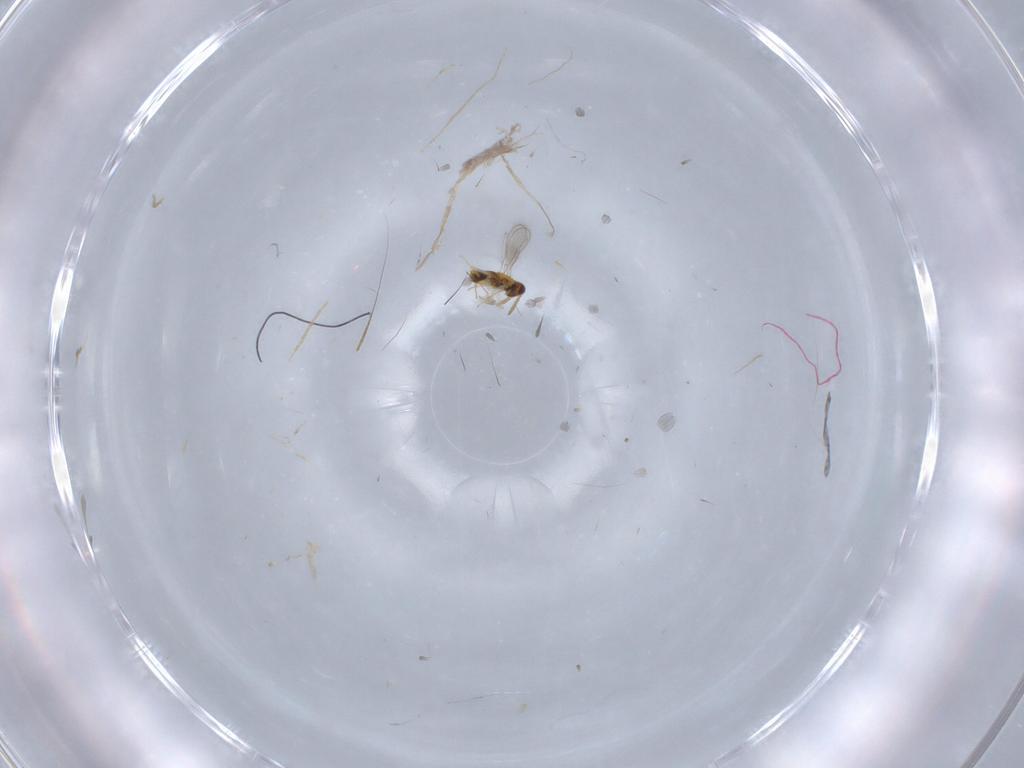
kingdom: Animalia
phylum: Arthropoda
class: Insecta
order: Hymenoptera
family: Aphelinidae
